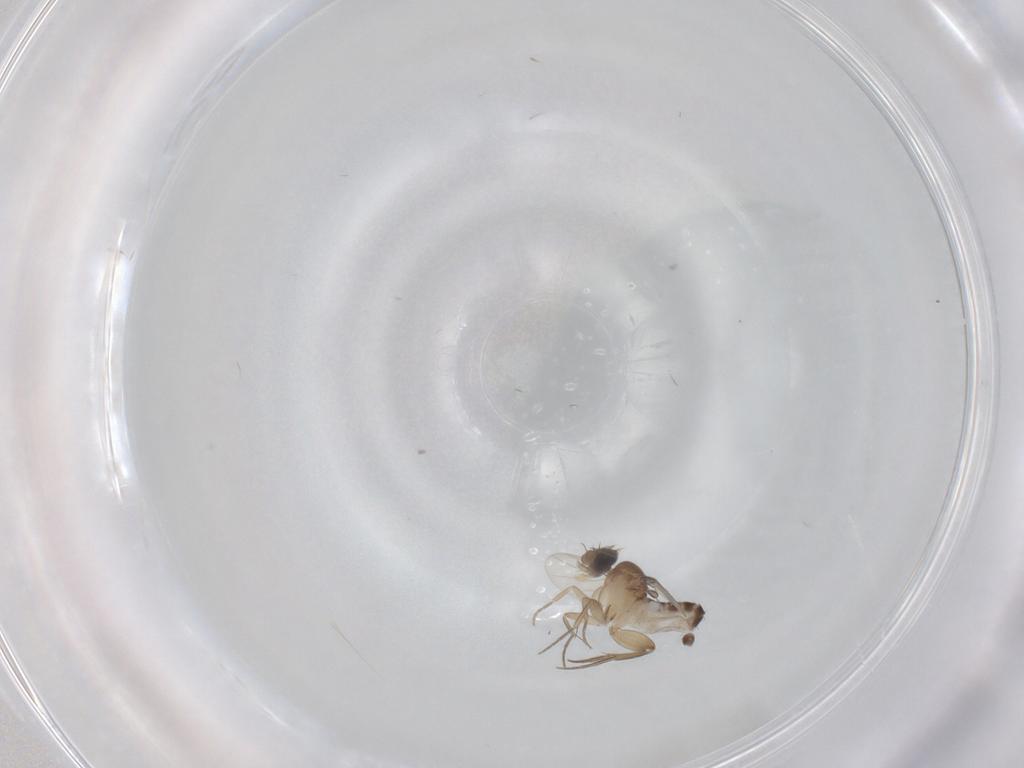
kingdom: Animalia
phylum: Arthropoda
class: Insecta
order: Diptera
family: Phoridae
